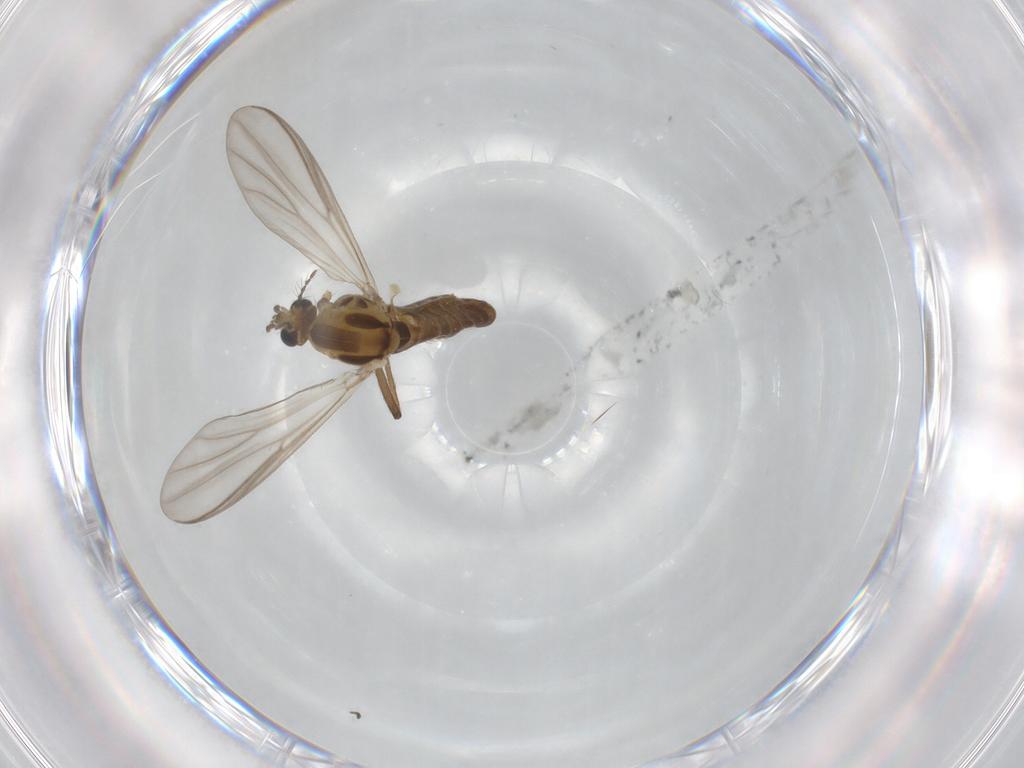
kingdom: Animalia
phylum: Arthropoda
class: Insecta
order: Diptera
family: Chironomidae
